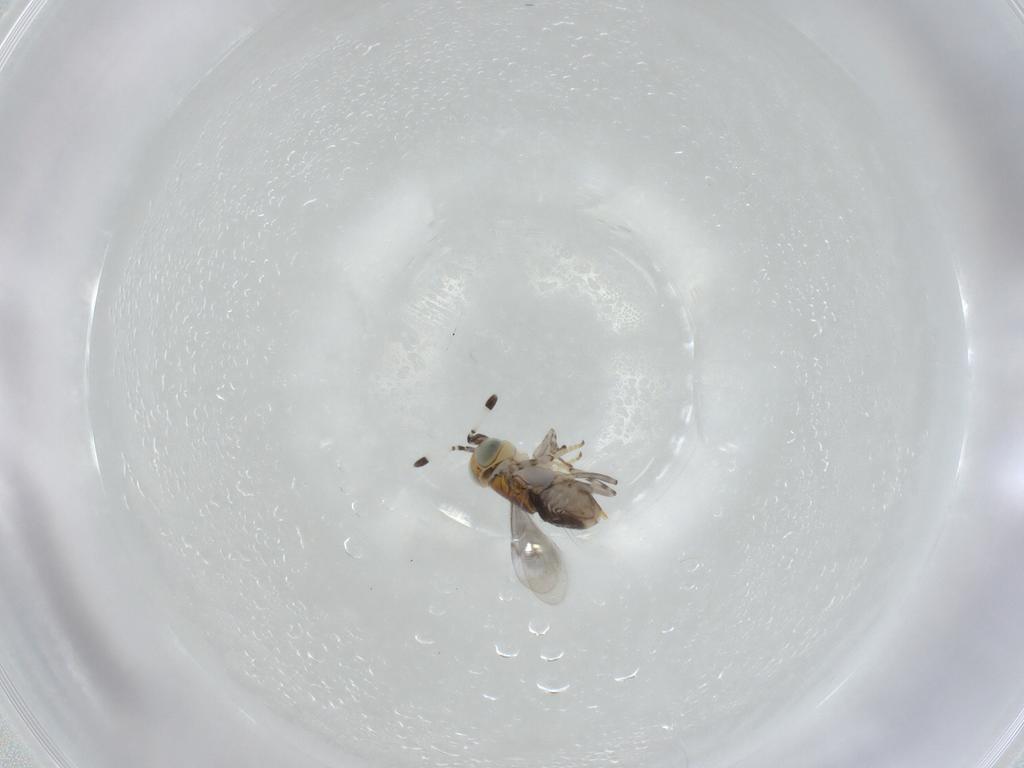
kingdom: Animalia
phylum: Arthropoda
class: Insecta
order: Hymenoptera
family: Encyrtidae
